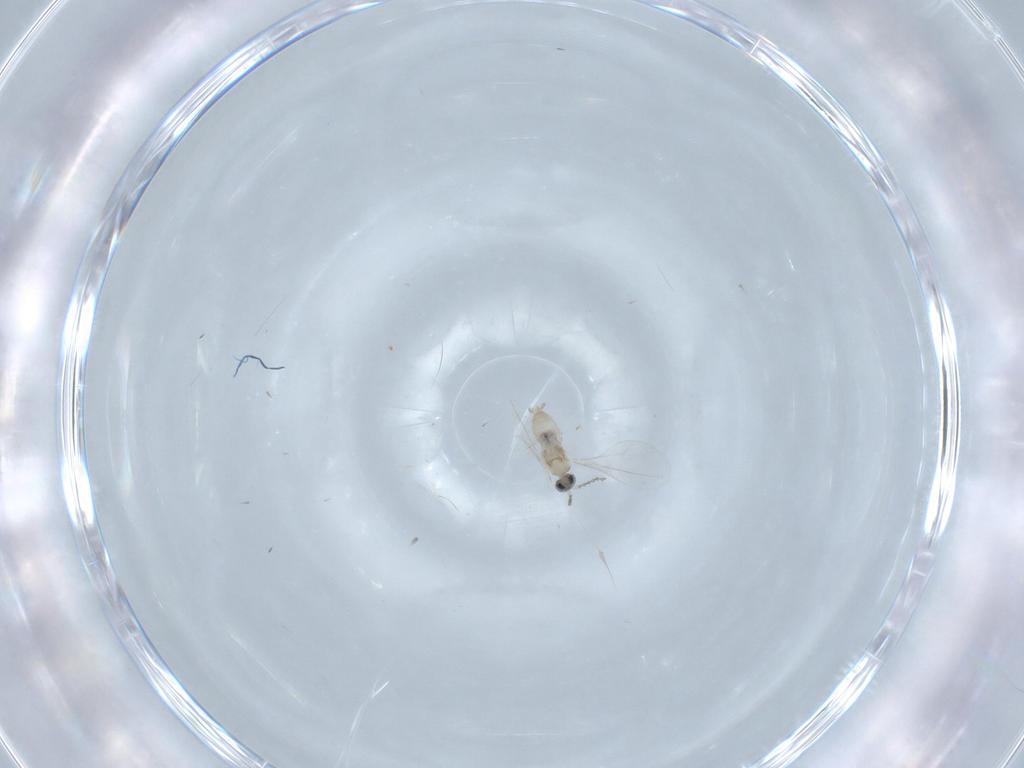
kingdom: Animalia
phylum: Arthropoda
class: Insecta
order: Diptera
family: Cecidomyiidae
